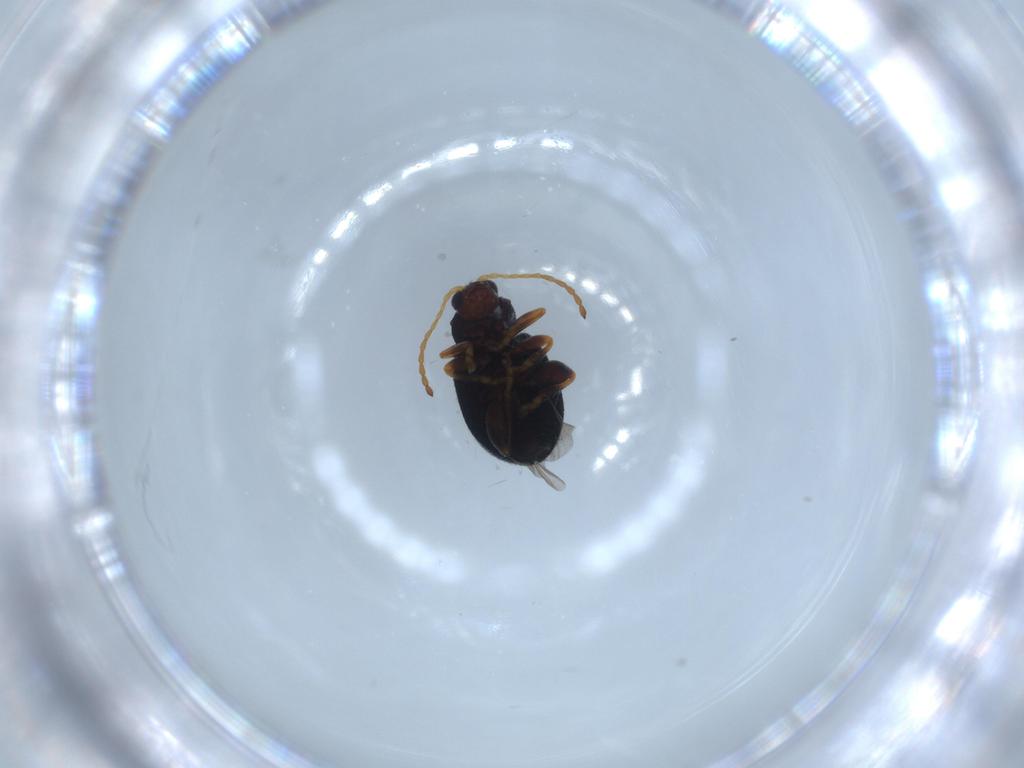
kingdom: Animalia
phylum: Arthropoda
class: Insecta
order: Coleoptera
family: Chrysomelidae
